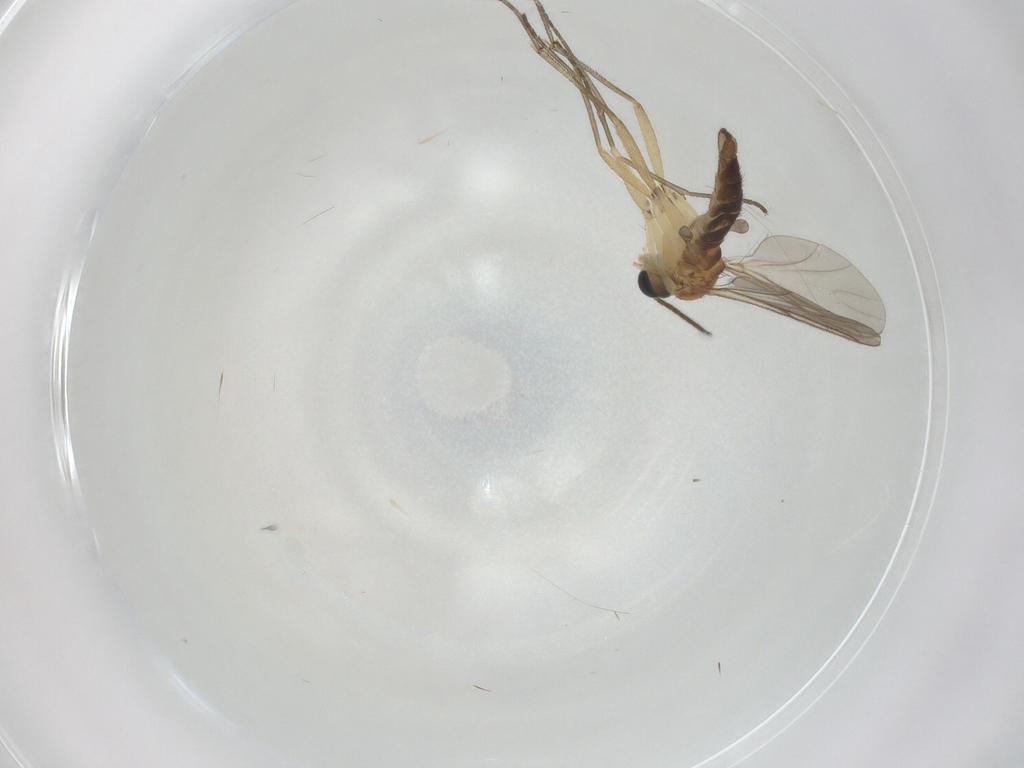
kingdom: Animalia
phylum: Arthropoda
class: Insecta
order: Diptera
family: Sciaridae
